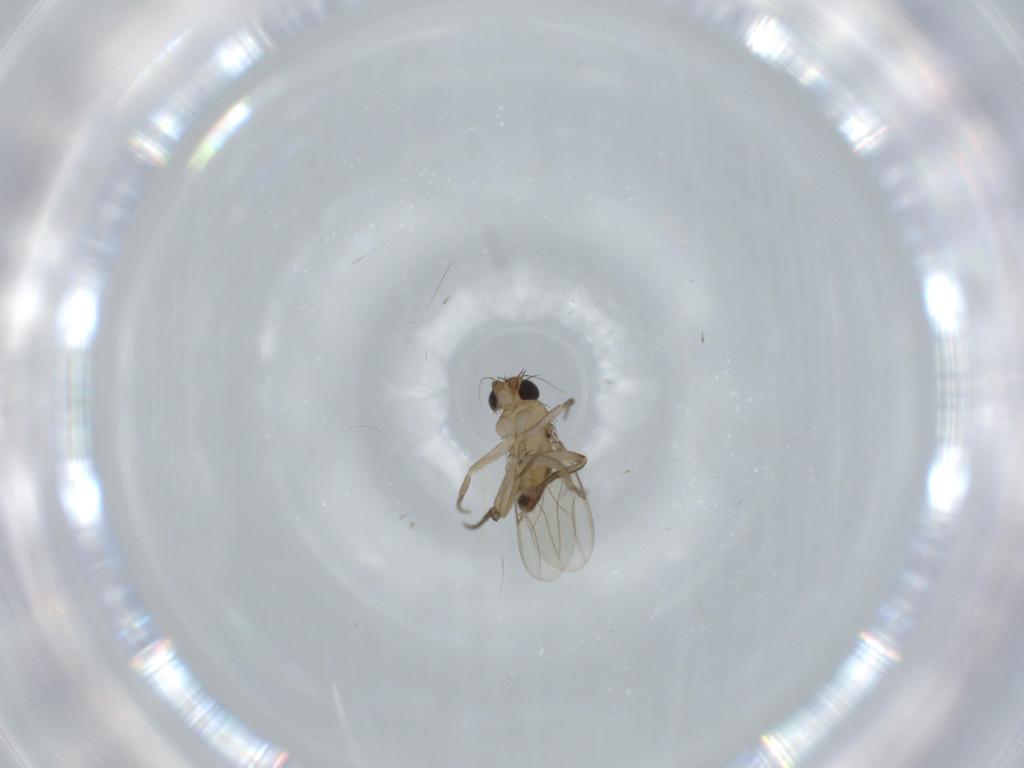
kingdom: Animalia
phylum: Arthropoda
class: Insecta
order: Diptera
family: Phoridae
